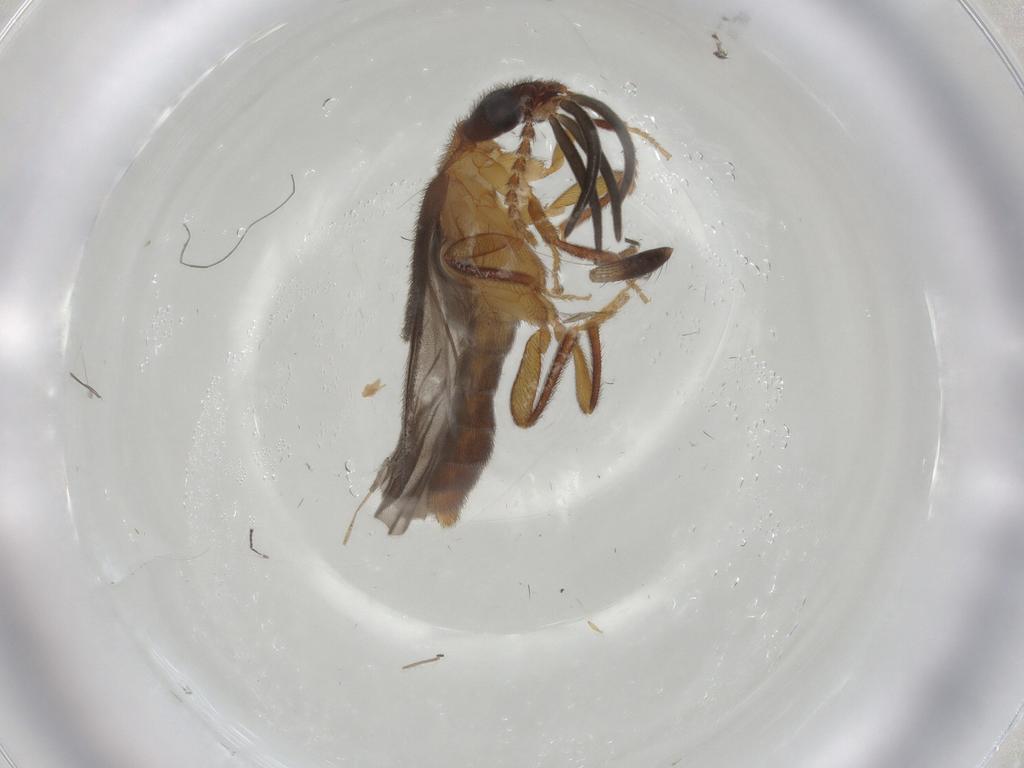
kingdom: Animalia
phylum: Arthropoda
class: Insecta
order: Coleoptera
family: Omethidae
